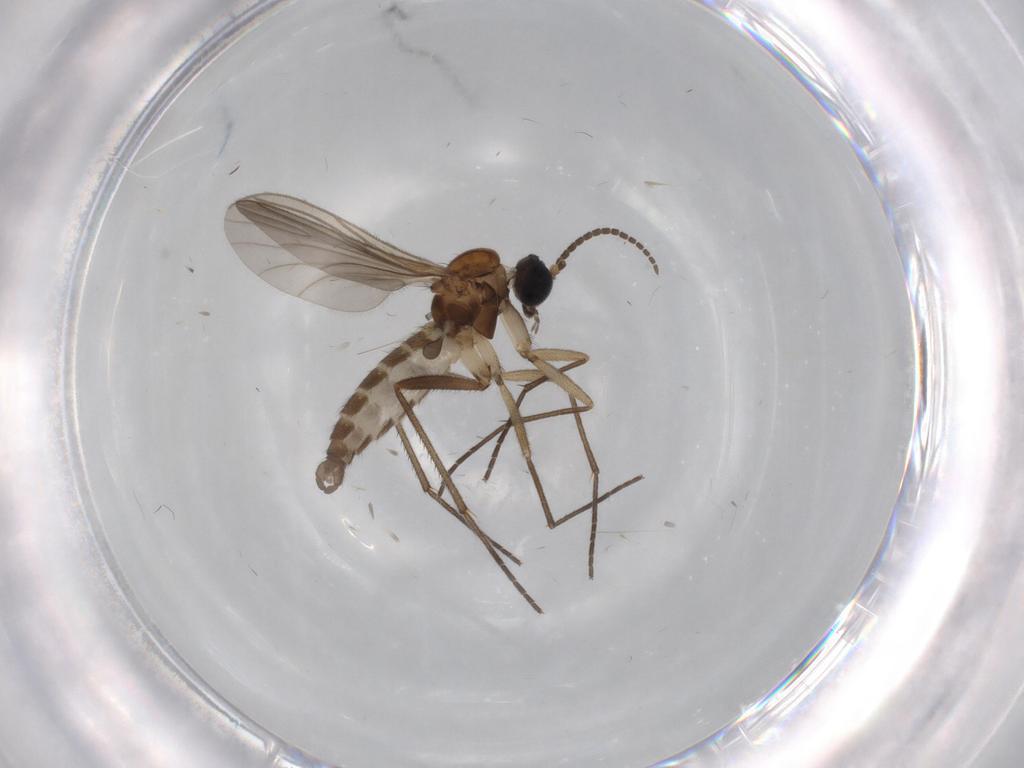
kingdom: Animalia
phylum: Arthropoda
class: Insecta
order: Diptera
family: Sciaridae
